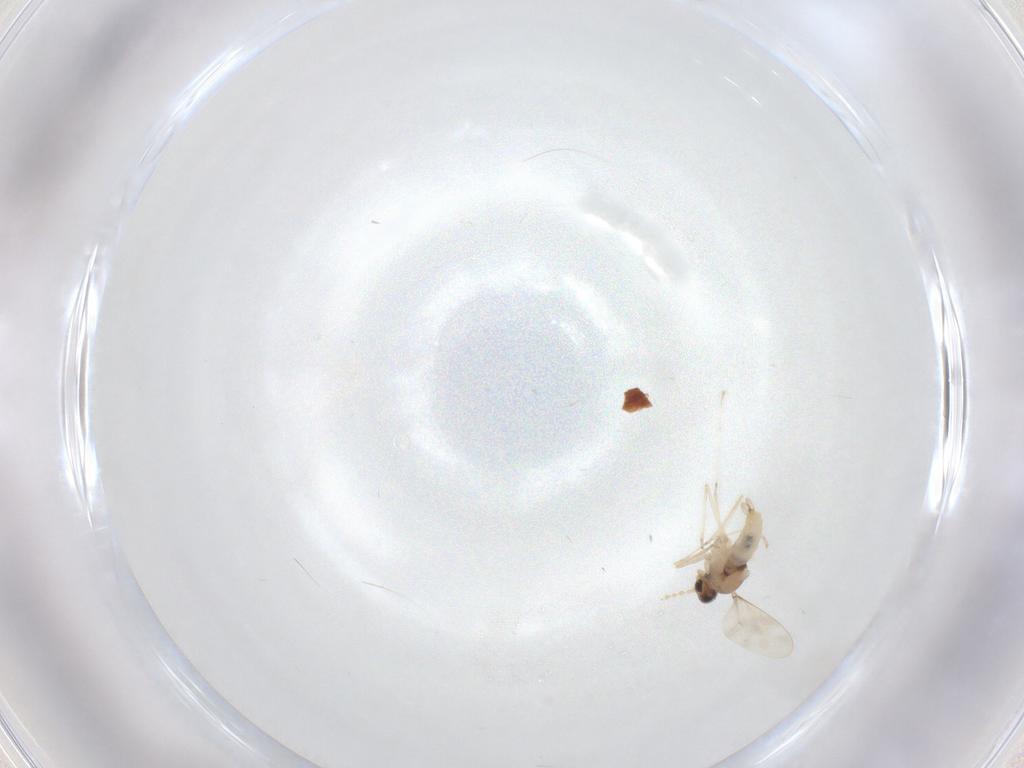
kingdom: Animalia
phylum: Arthropoda
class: Insecta
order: Diptera
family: Cecidomyiidae
